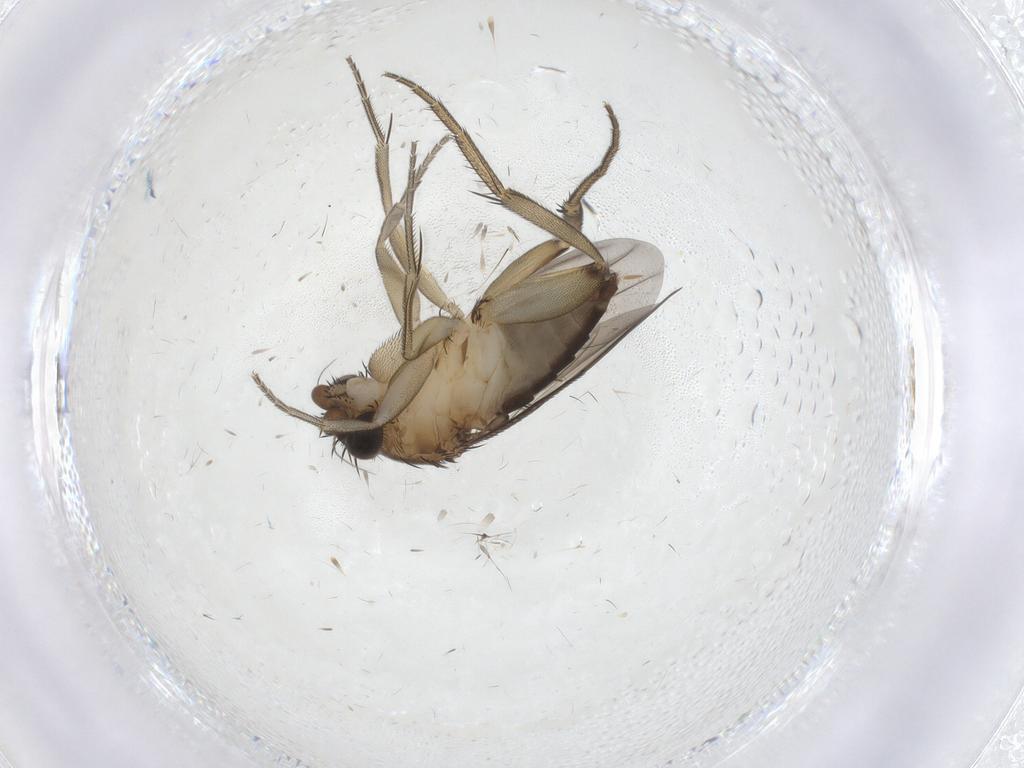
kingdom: Animalia
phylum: Arthropoda
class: Insecta
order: Diptera
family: Phoridae
